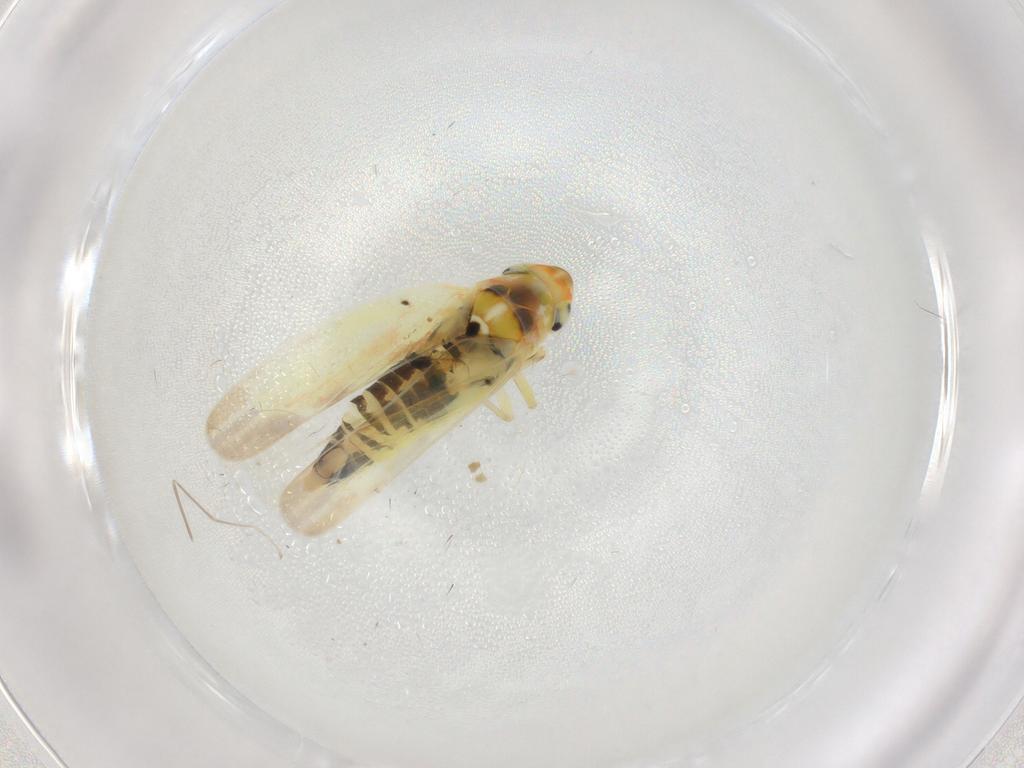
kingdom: Animalia
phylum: Arthropoda
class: Insecta
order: Hemiptera
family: Cicadellidae
